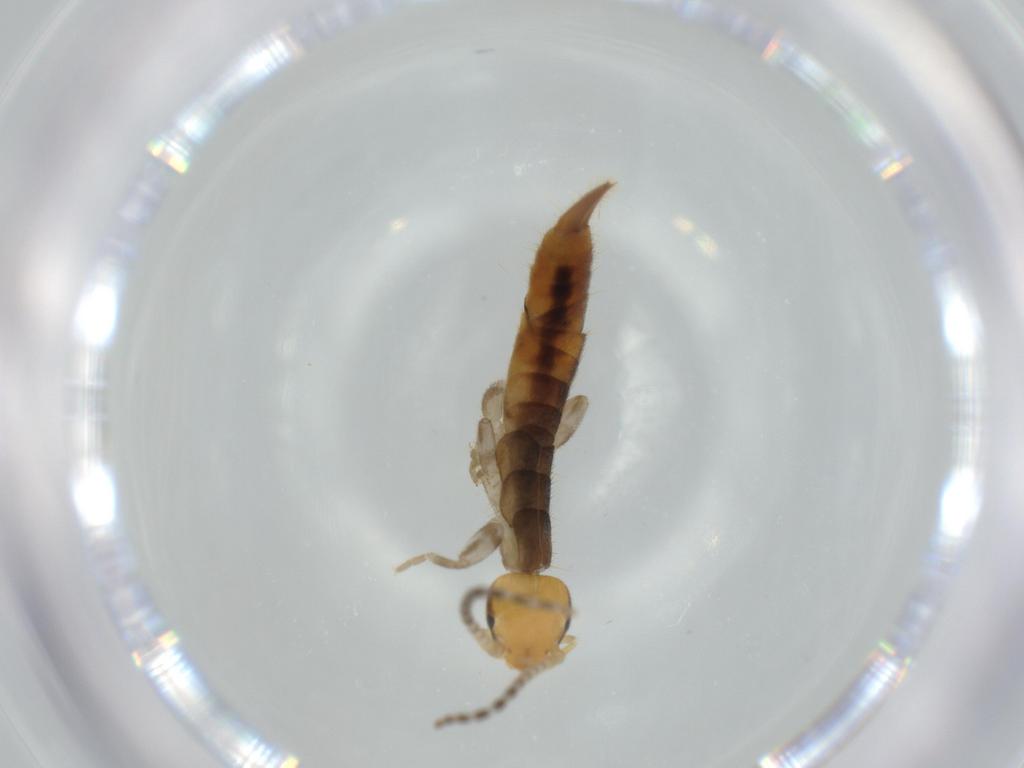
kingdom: Animalia
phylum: Arthropoda
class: Insecta
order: Dermaptera
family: Forficulidae
